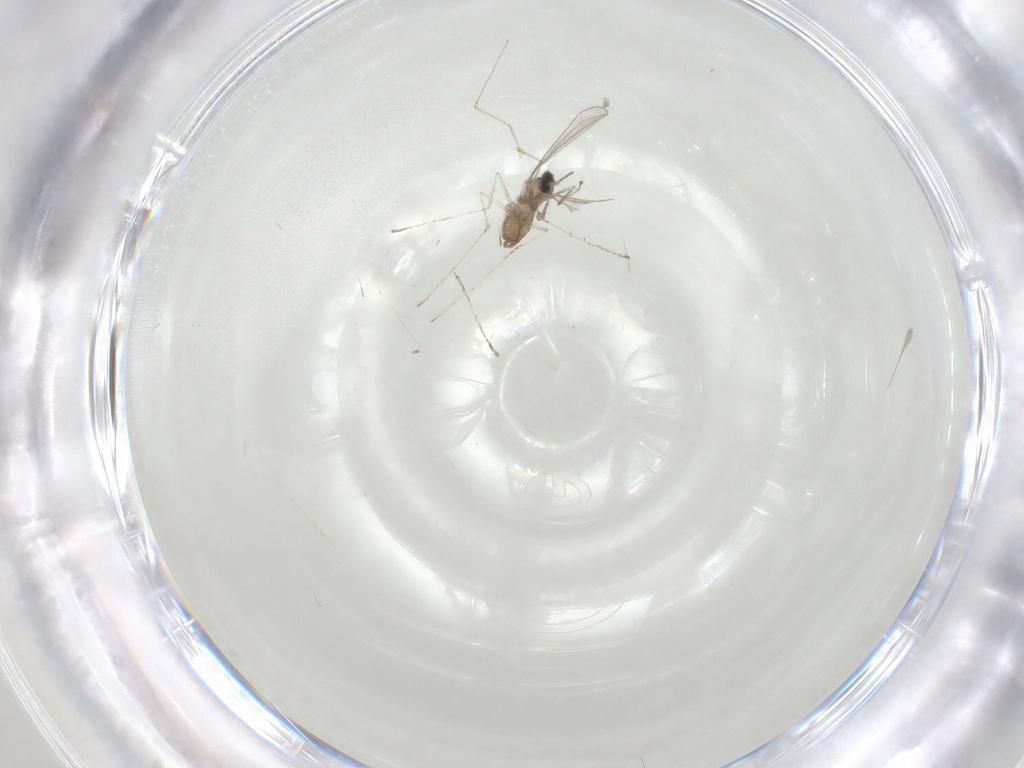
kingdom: Animalia
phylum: Arthropoda
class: Insecta
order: Diptera
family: Cecidomyiidae
